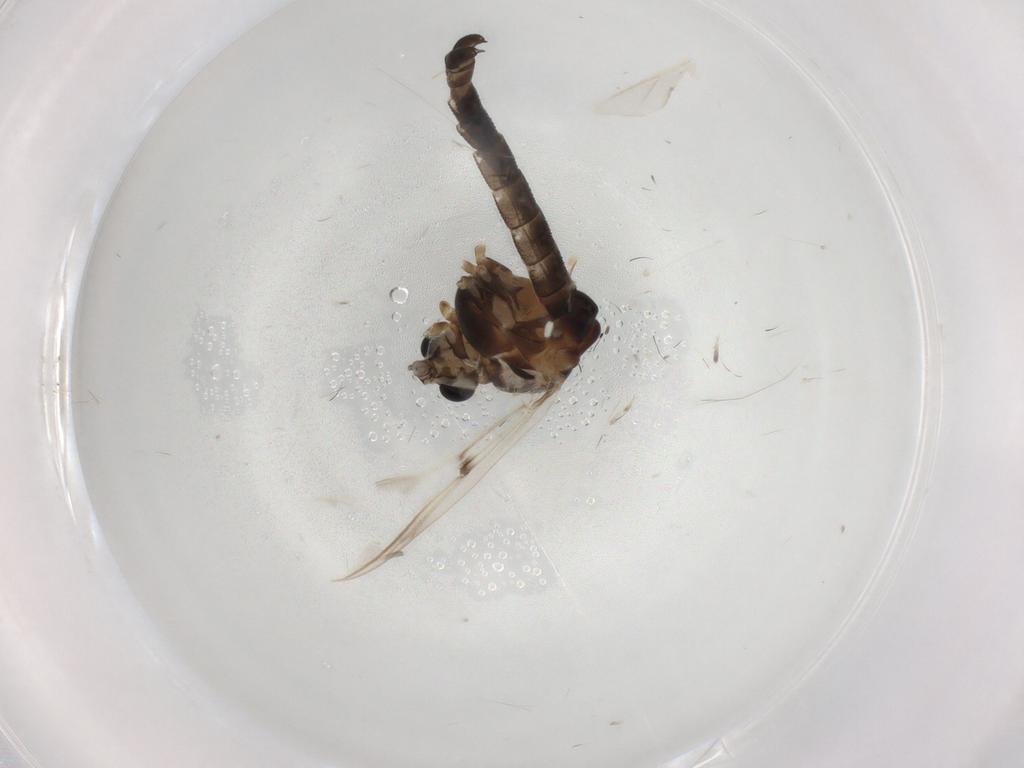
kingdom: Animalia
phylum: Arthropoda
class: Insecta
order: Diptera
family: Chironomidae
